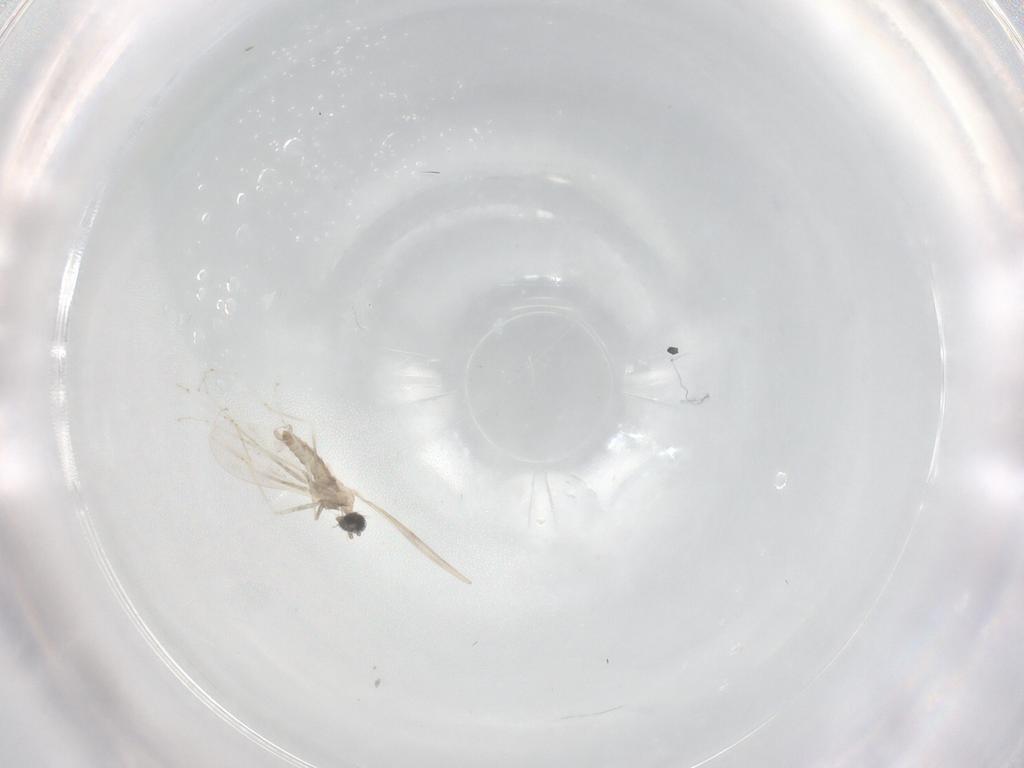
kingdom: Animalia
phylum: Arthropoda
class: Insecta
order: Diptera
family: Cecidomyiidae
